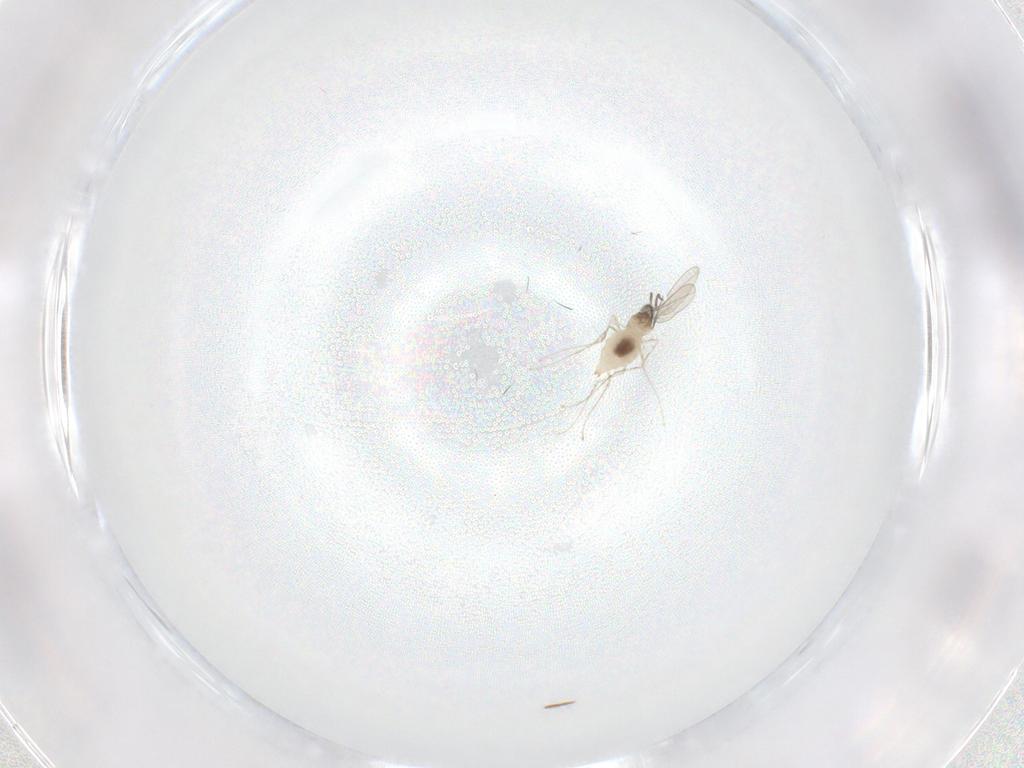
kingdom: Animalia
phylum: Arthropoda
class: Insecta
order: Diptera
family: Cecidomyiidae
